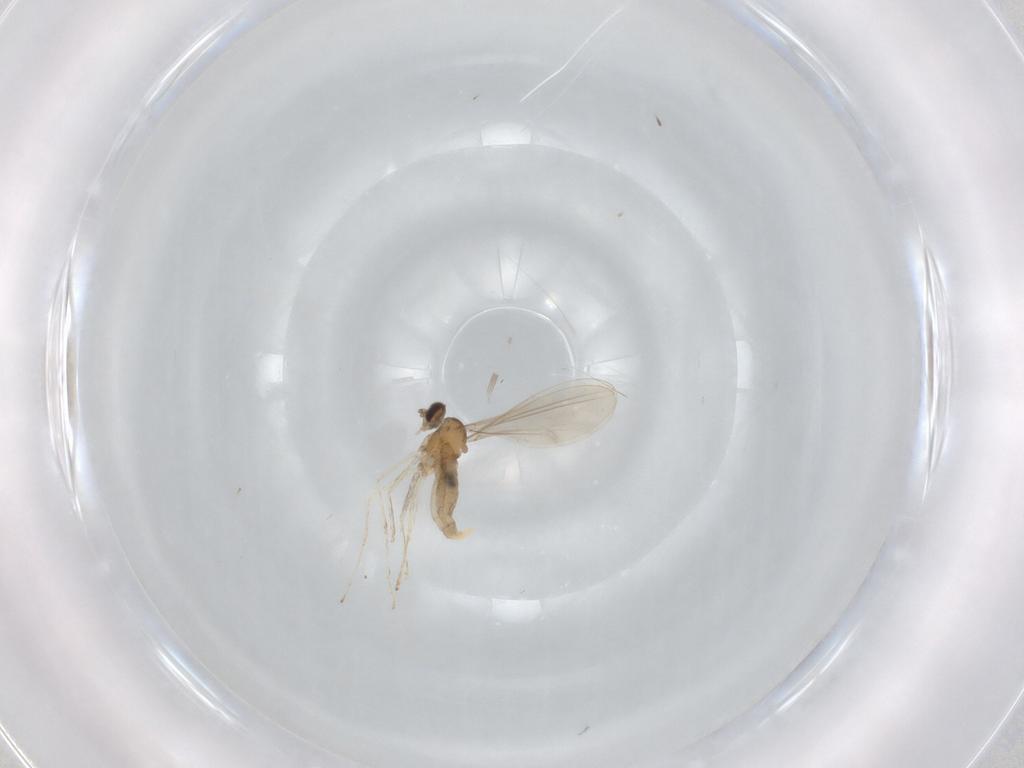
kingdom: Animalia
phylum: Arthropoda
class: Insecta
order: Diptera
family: Cecidomyiidae
